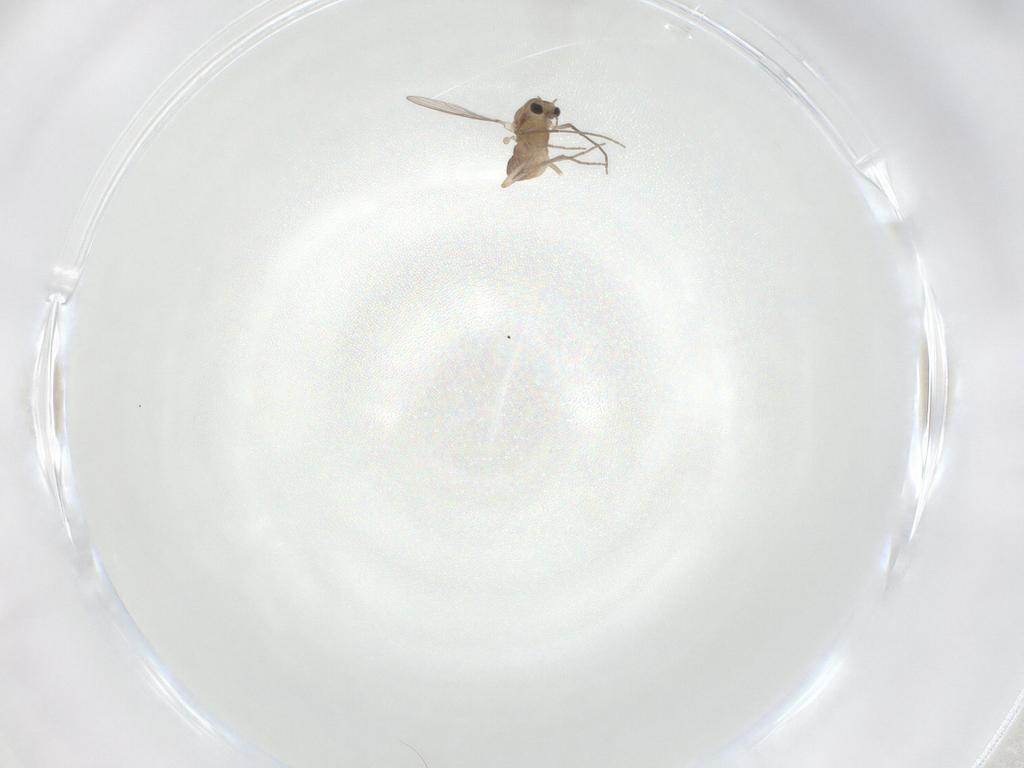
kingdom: Animalia
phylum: Arthropoda
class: Insecta
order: Diptera
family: Chironomidae
